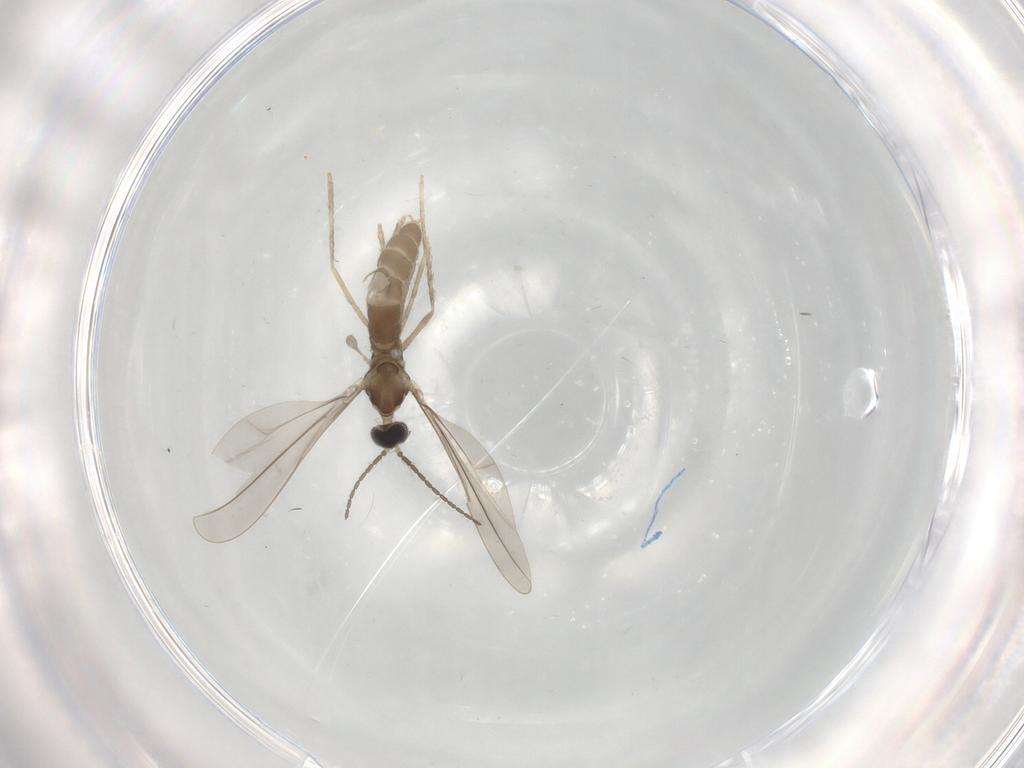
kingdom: Animalia
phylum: Arthropoda
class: Insecta
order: Diptera
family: Cecidomyiidae
